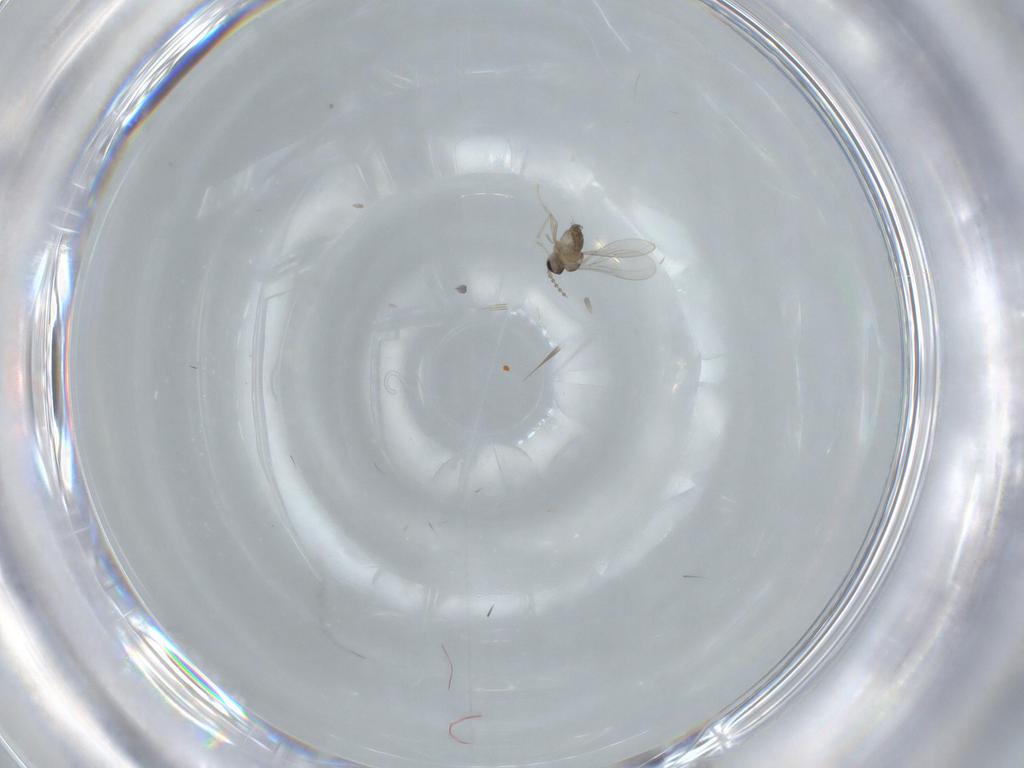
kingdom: Animalia
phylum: Arthropoda
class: Insecta
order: Diptera
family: Cecidomyiidae
